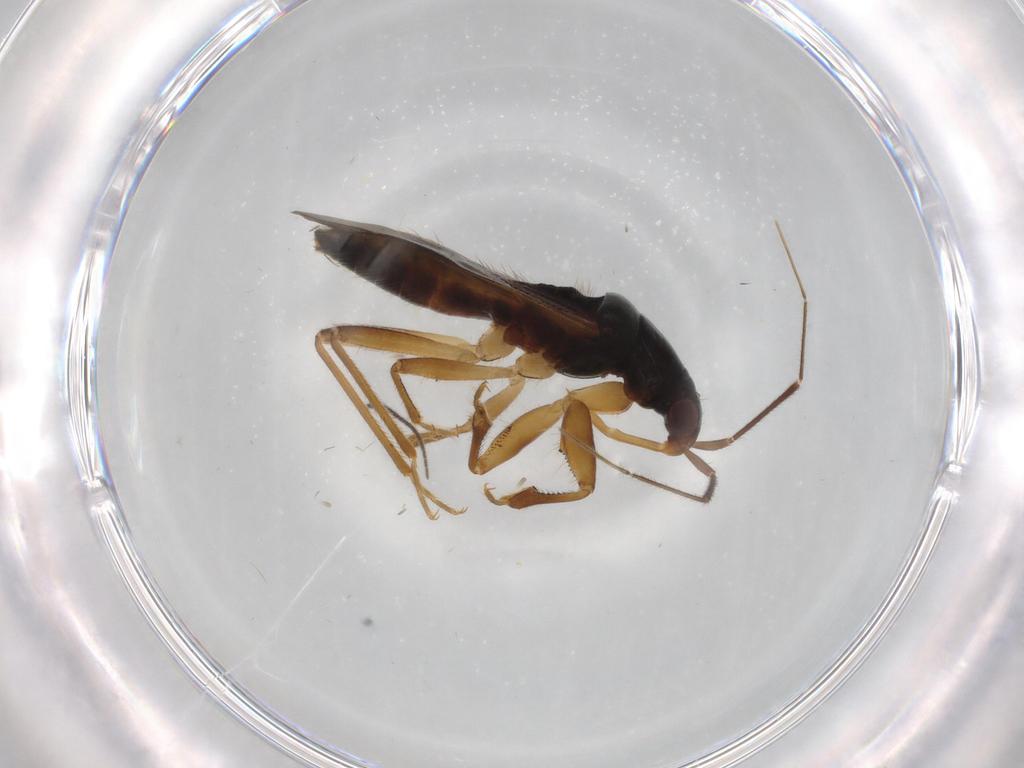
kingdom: Animalia
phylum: Arthropoda
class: Insecta
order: Hemiptera
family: Nabidae
